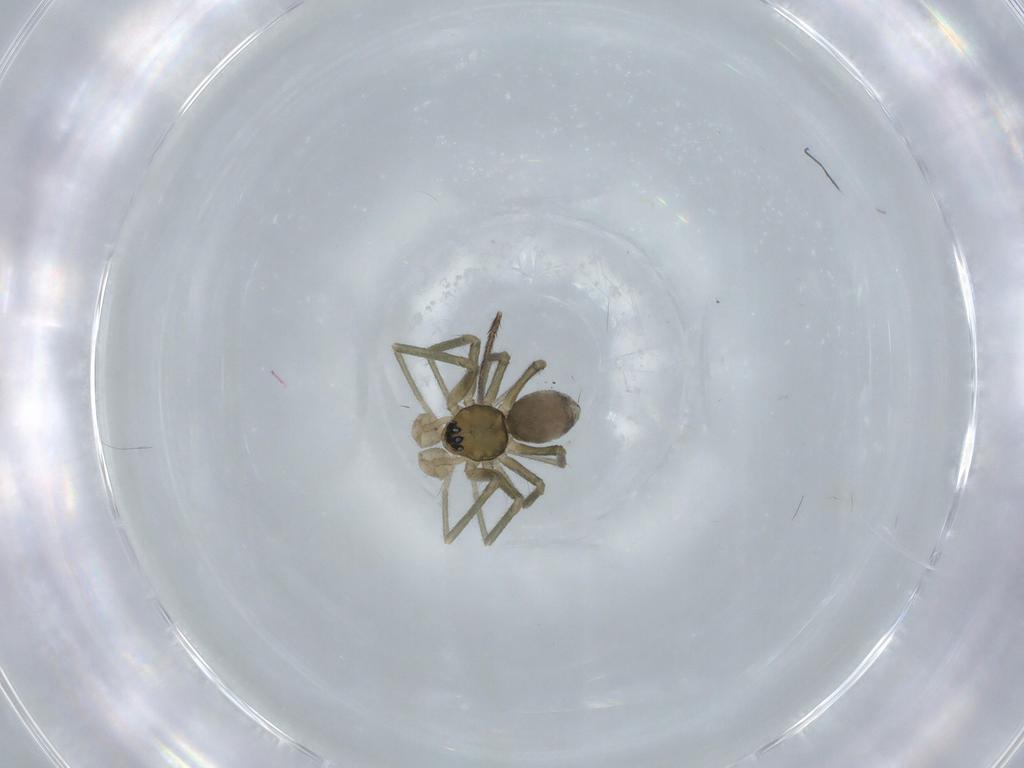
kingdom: Animalia
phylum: Arthropoda
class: Arachnida
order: Araneae
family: Linyphiidae
